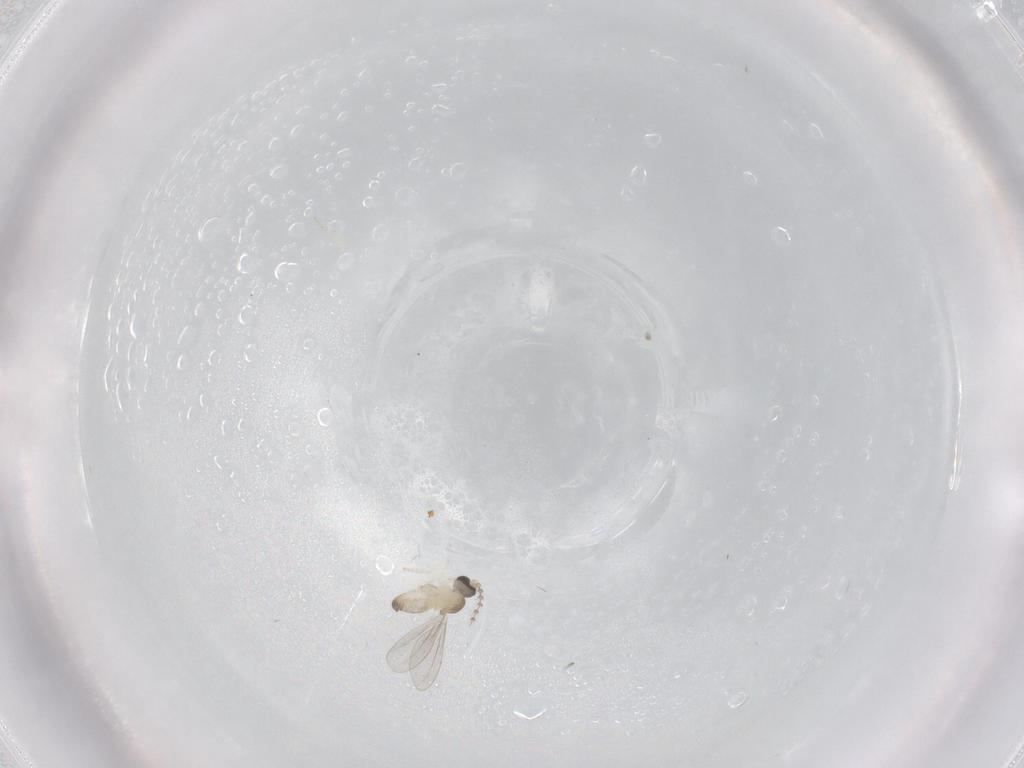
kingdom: Animalia
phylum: Arthropoda
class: Insecta
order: Diptera
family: Cecidomyiidae
